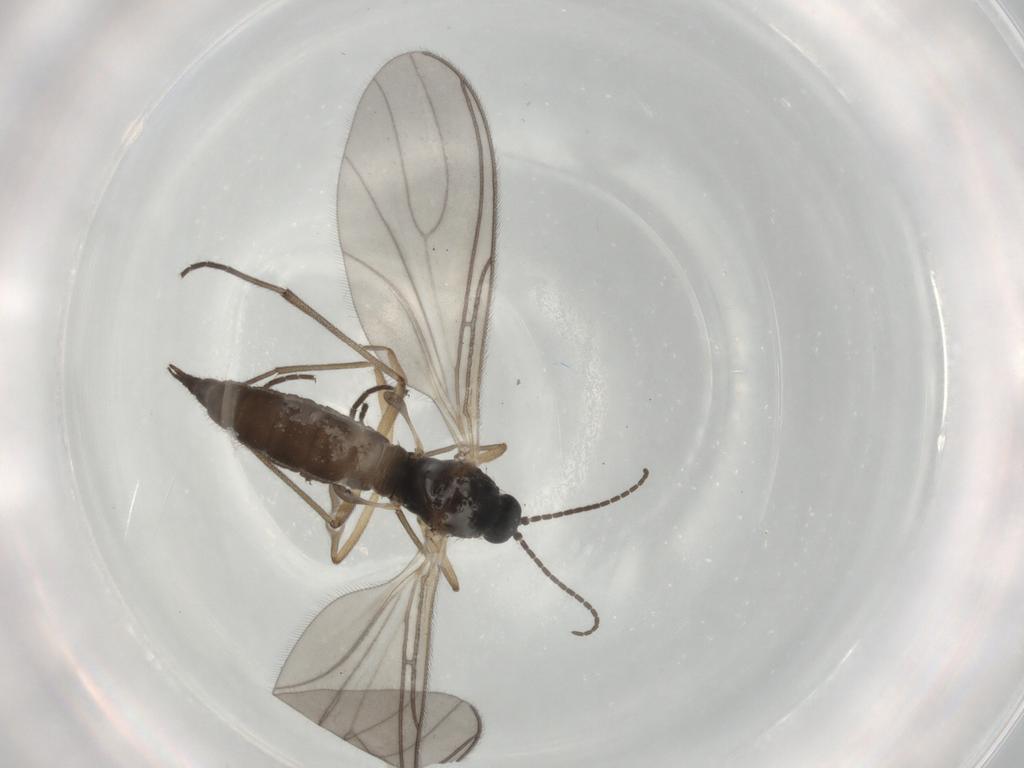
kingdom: Animalia
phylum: Arthropoda
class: Insecta
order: Diptera
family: Sciaridae
